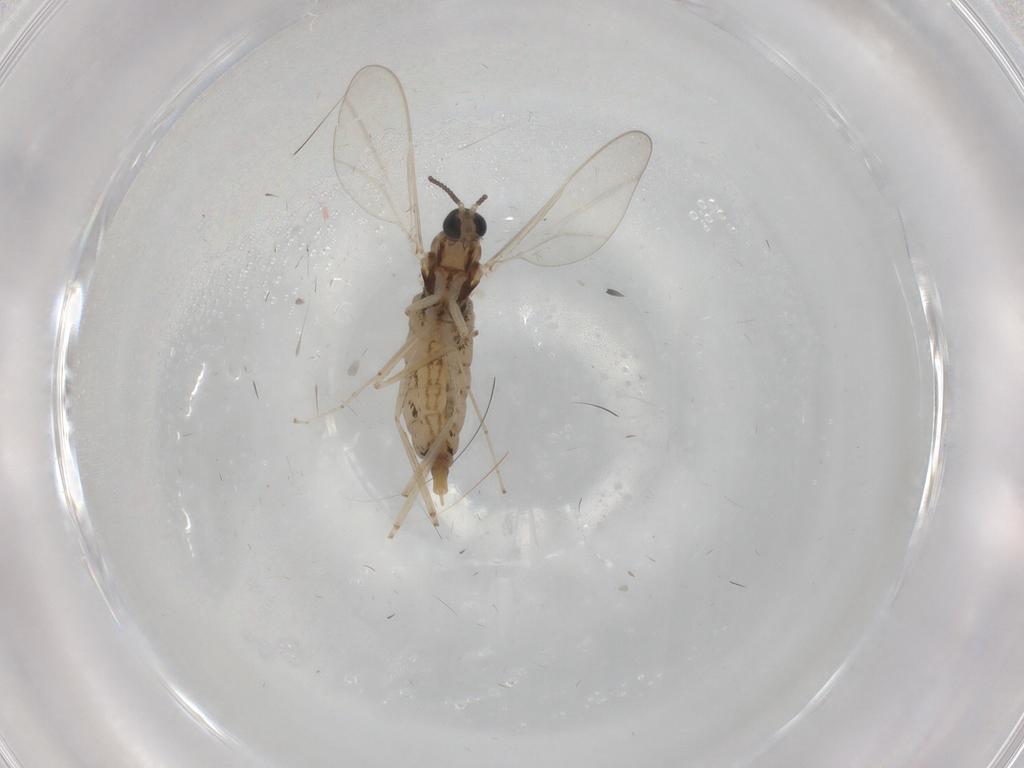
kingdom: Animalia
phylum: Arthropoda
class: Insecta
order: Diptera
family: Cecidomyiidae
